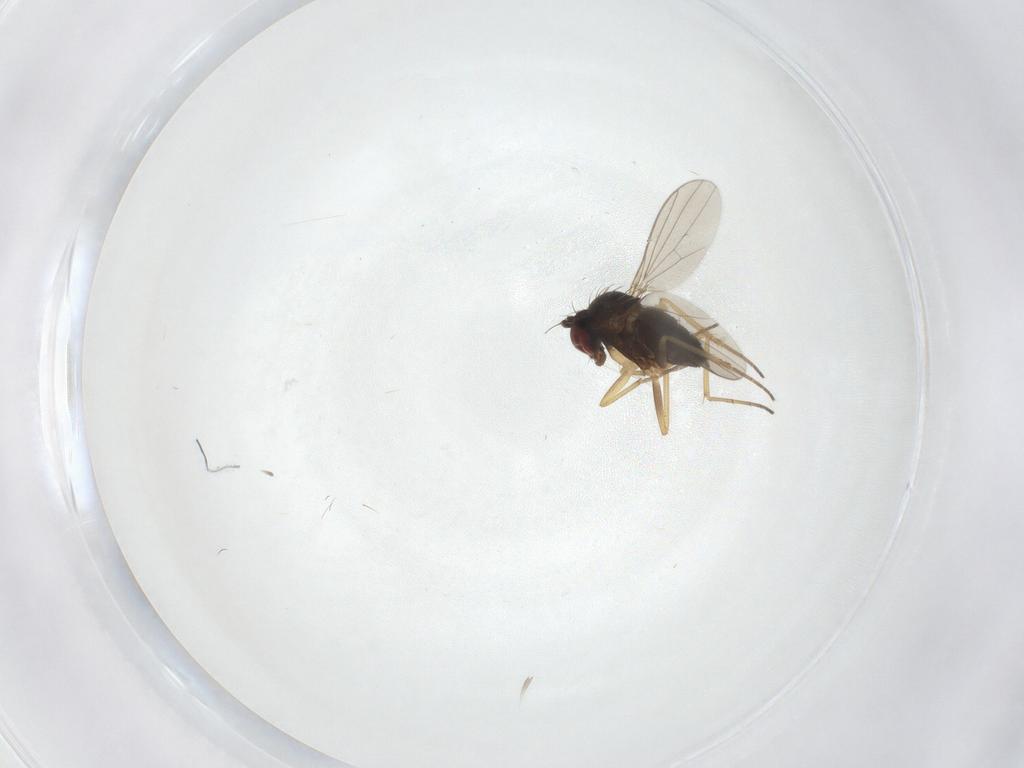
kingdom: Animalia
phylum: Arthropoda
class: Insecta
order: Diptera
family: Dolichopodidae
